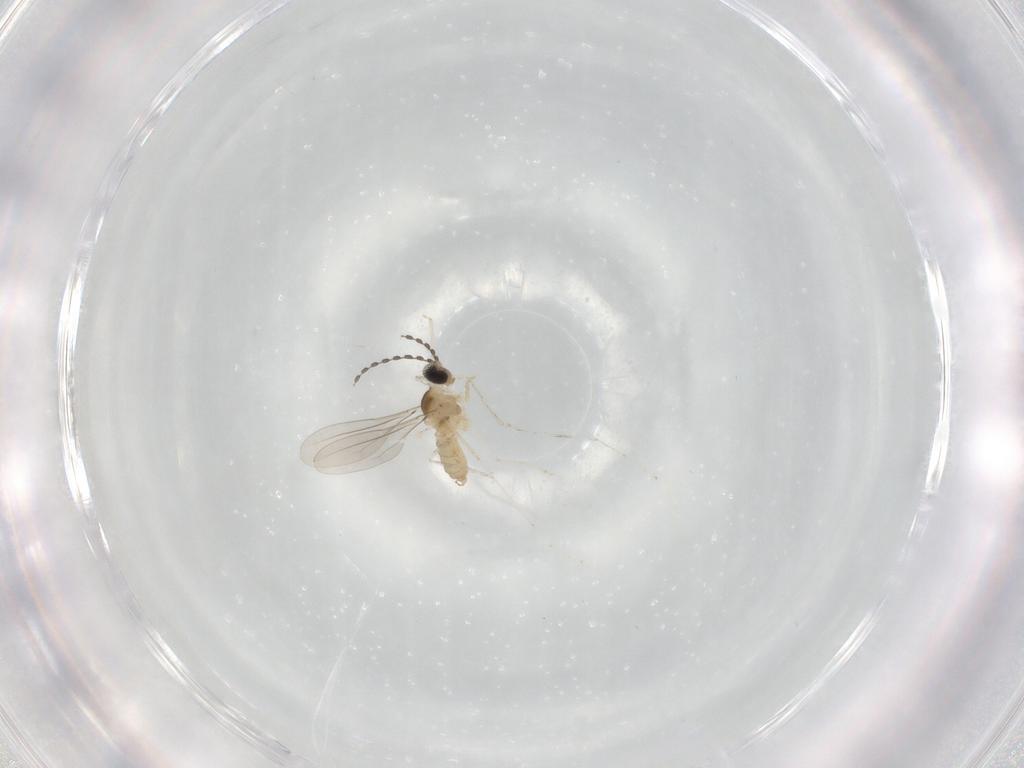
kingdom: Animalia
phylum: Arthropoda
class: Insecta
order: Diptera
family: Cecidomyiidae
